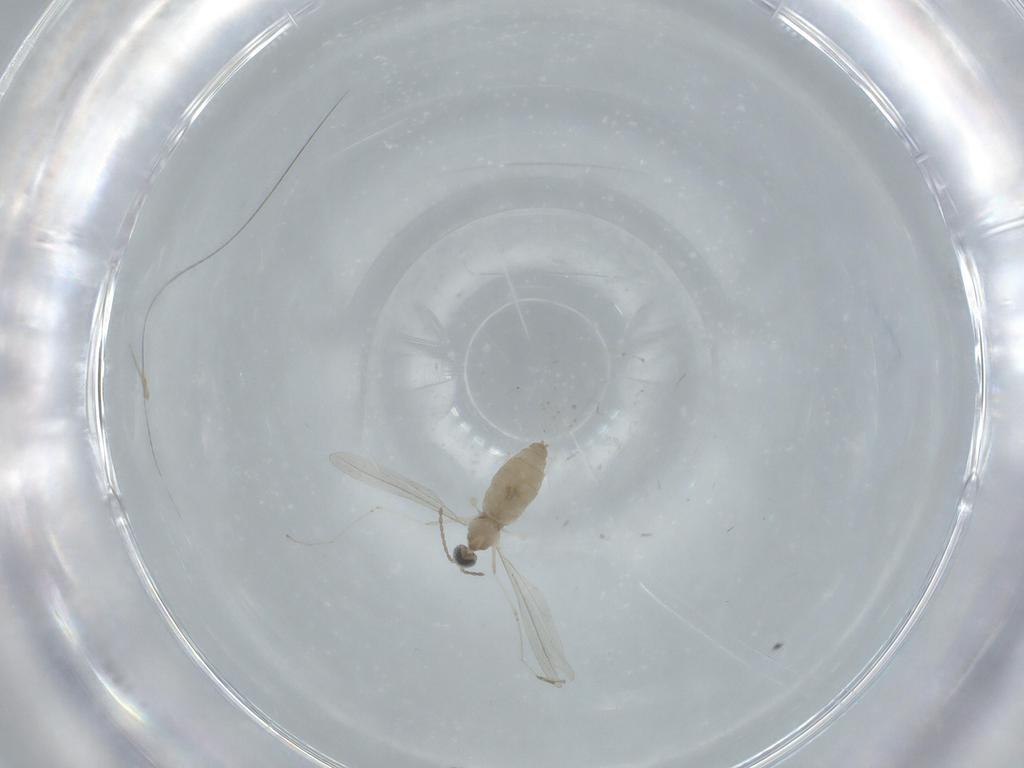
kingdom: Animalia
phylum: Arthropoda
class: Insecta
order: Diptera
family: Cecidomyiidae
